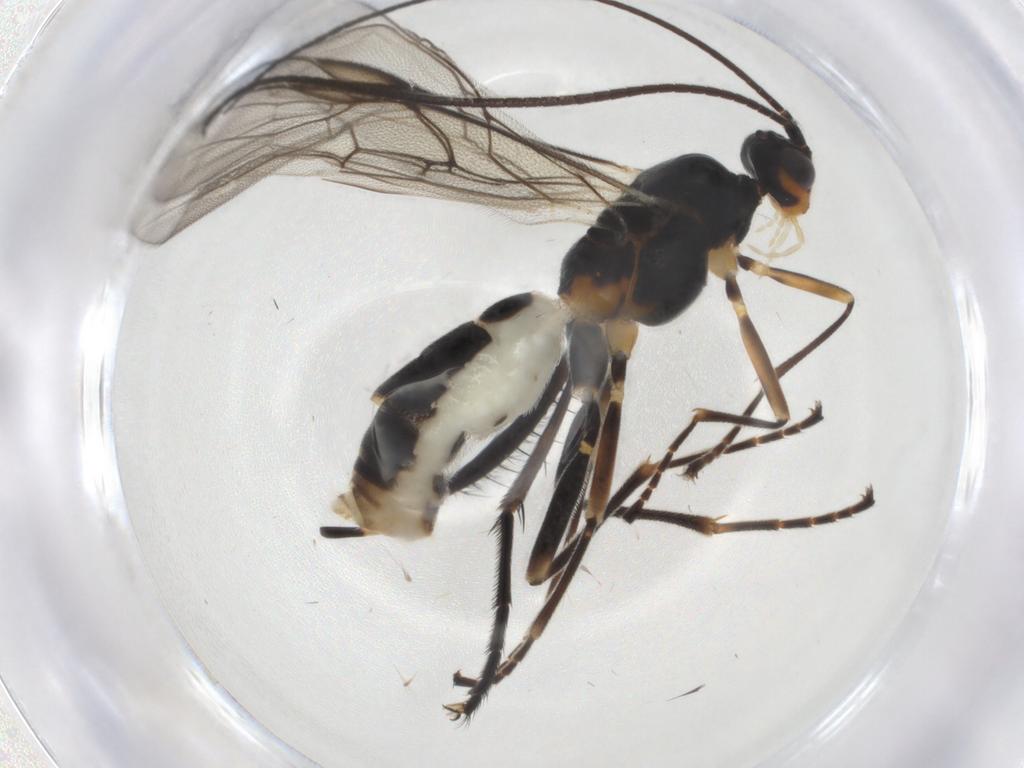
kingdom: Animalia
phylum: Arthropoda
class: Insecta
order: Hymenoptera
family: Braconidae
